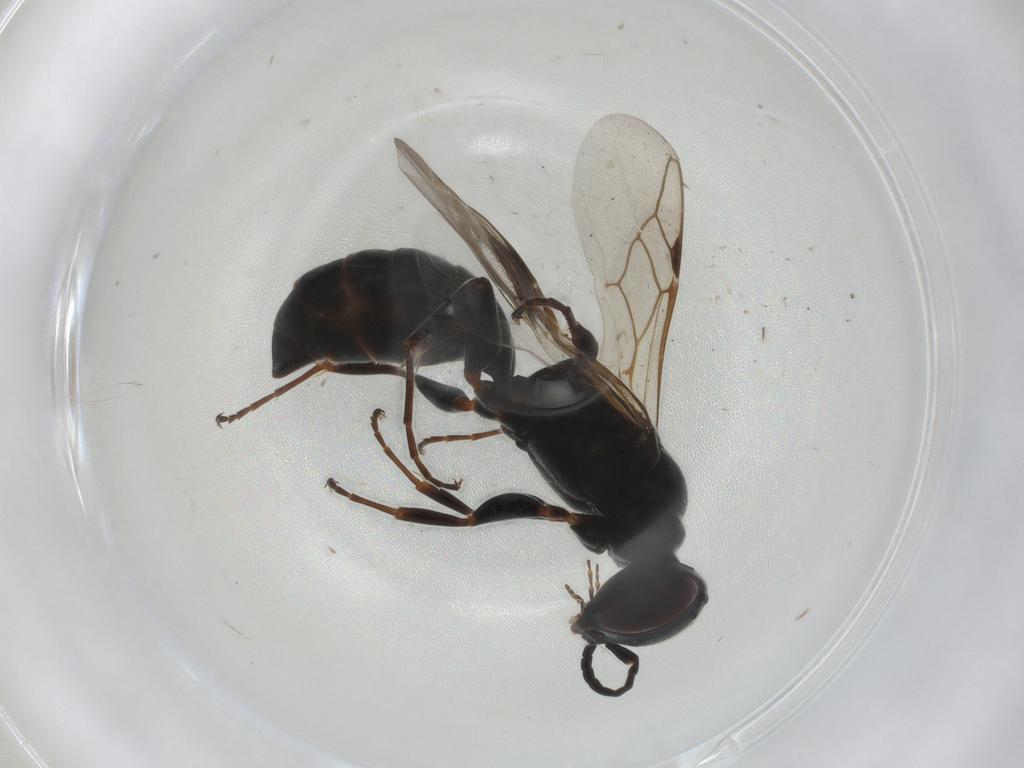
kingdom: Animalia
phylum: Arthropoda
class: Insecta
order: Hymenoptera
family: Crabronidae
